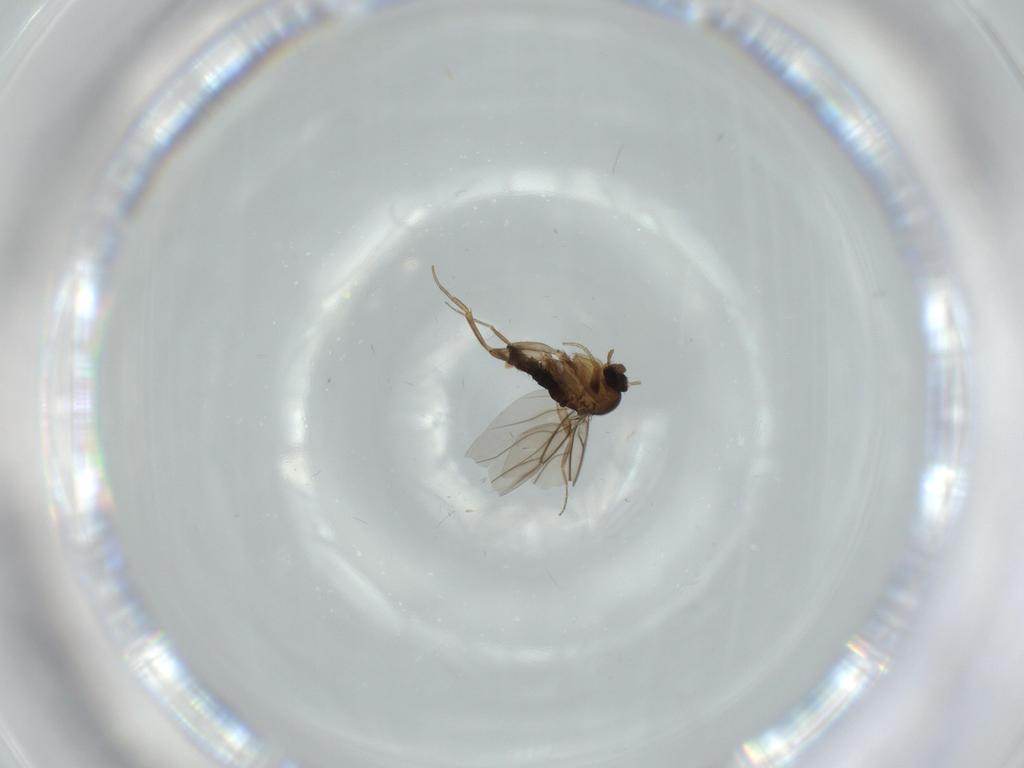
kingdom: Animalia
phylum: Arthropoda
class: Insecta
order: Diptera
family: Phoridae
